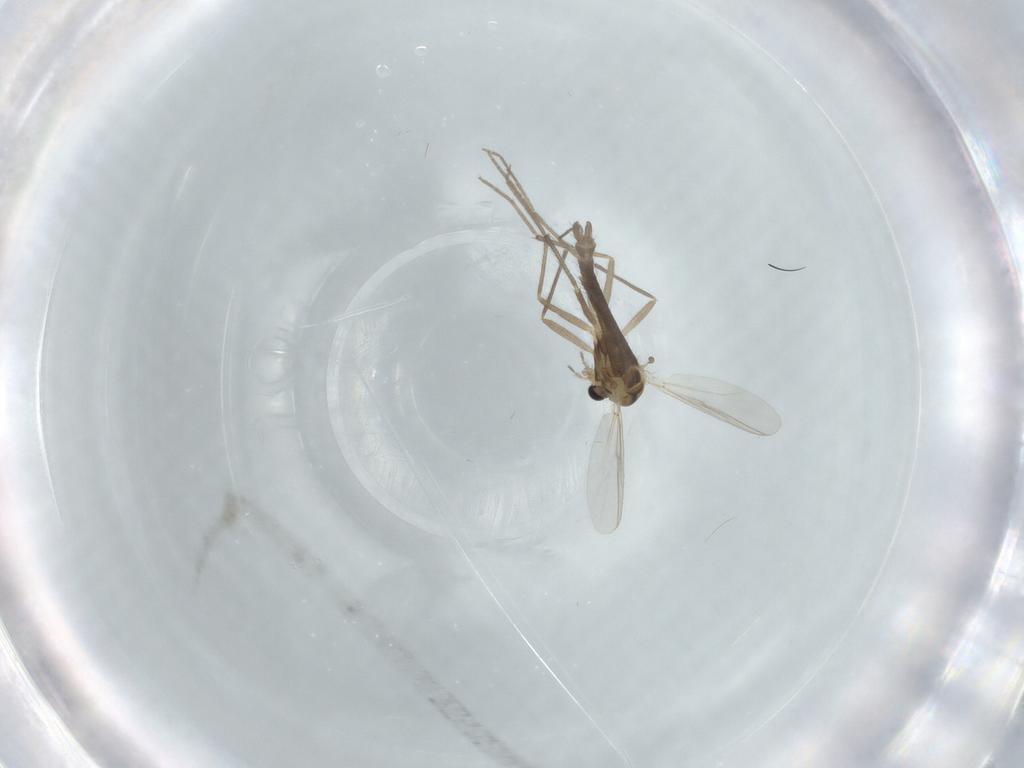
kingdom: Animalia
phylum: Arthropoda
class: Insecta
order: Diptera
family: Chironomidae
